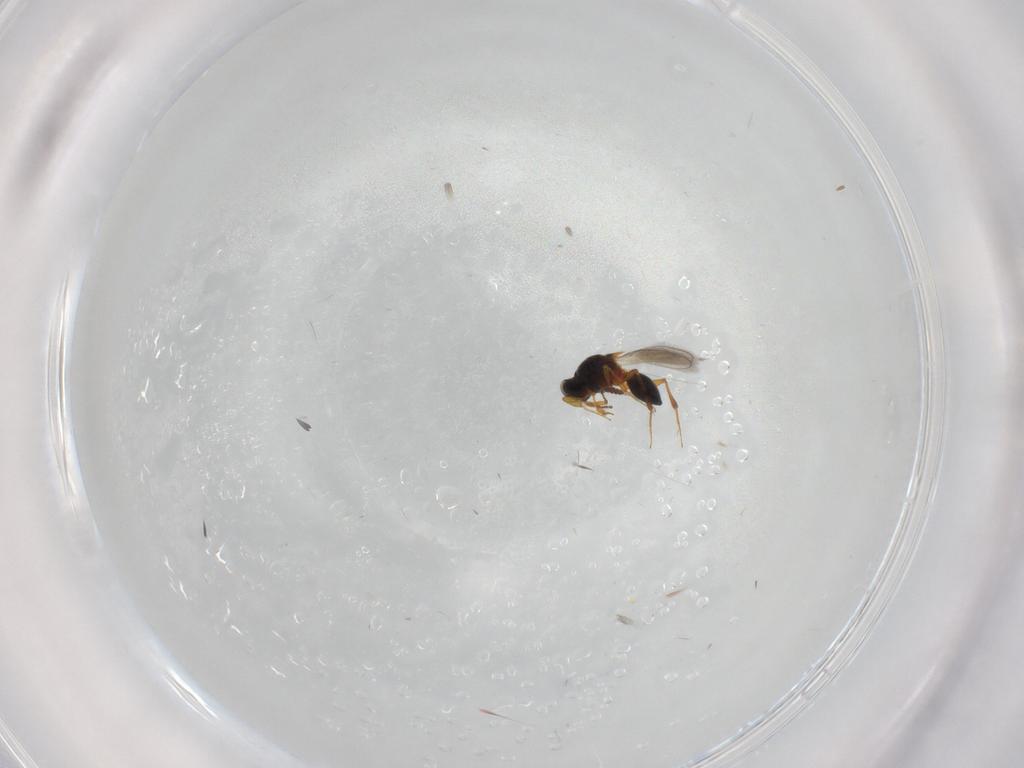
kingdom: Animalia
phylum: Arthropoda
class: Insecta
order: Hymenoptera
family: Platygastridae
